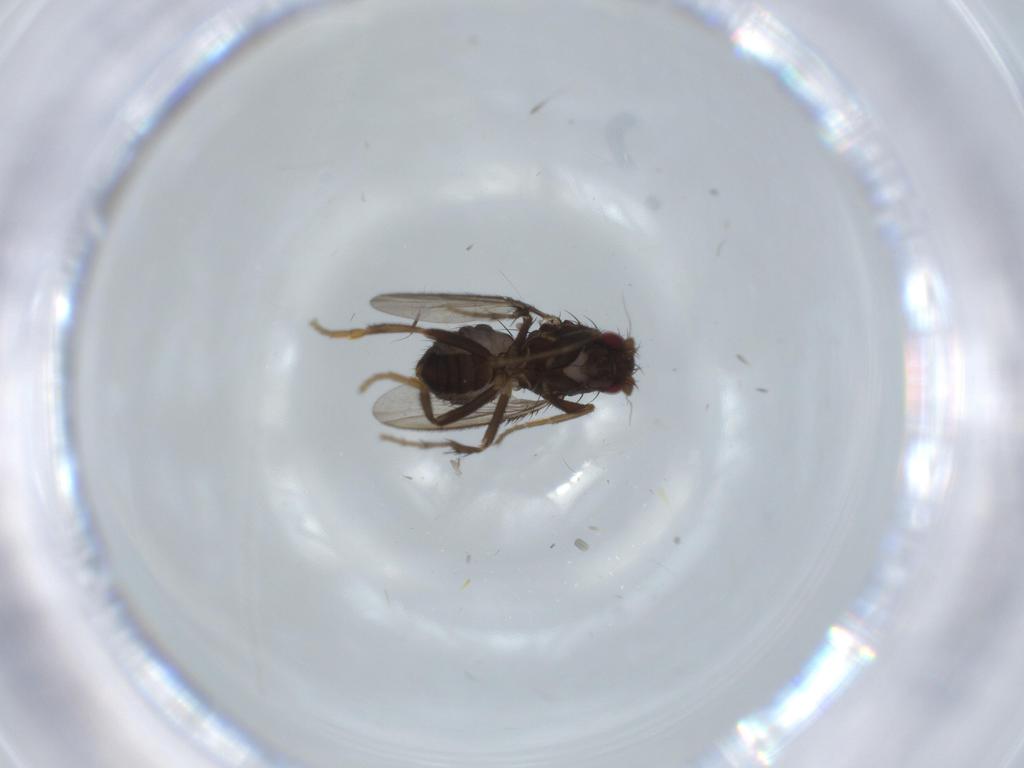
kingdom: Animalia
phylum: Arthropoda
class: Insecta
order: Diptera
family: Sphaeroceridae
